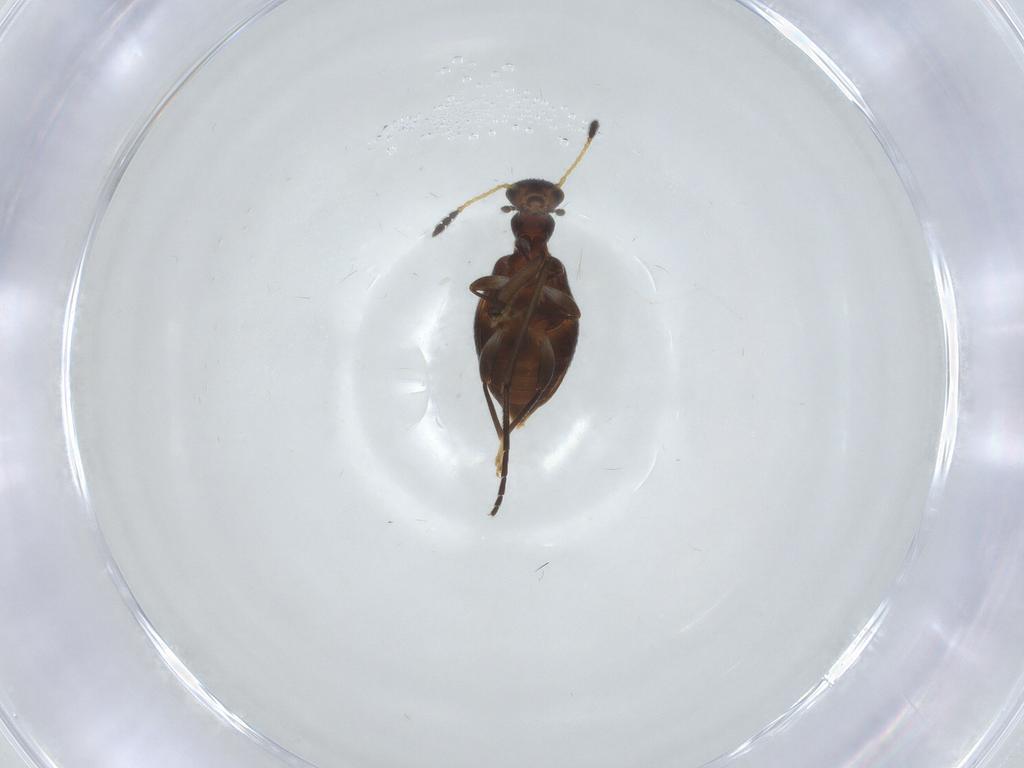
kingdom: Animalia
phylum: Arthropoda
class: Insecta
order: Coleoptera
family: Anthicidae
